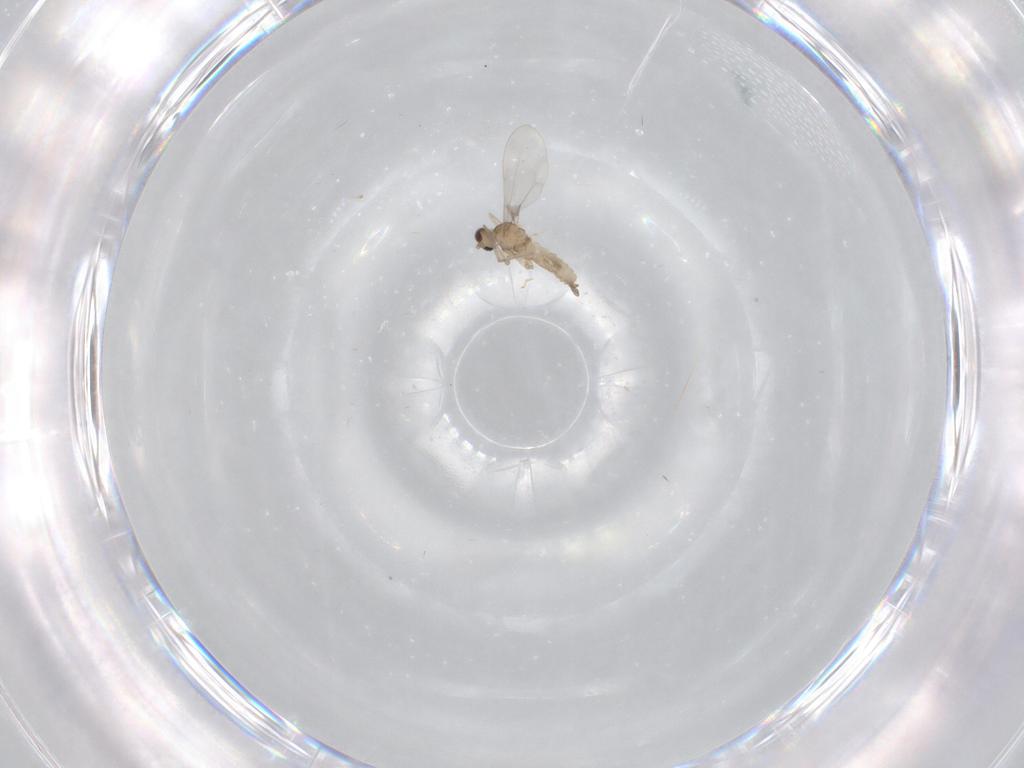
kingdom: Animalia
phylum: Arthropoda
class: Insecta
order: Diptera
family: Cecidomyiidae
